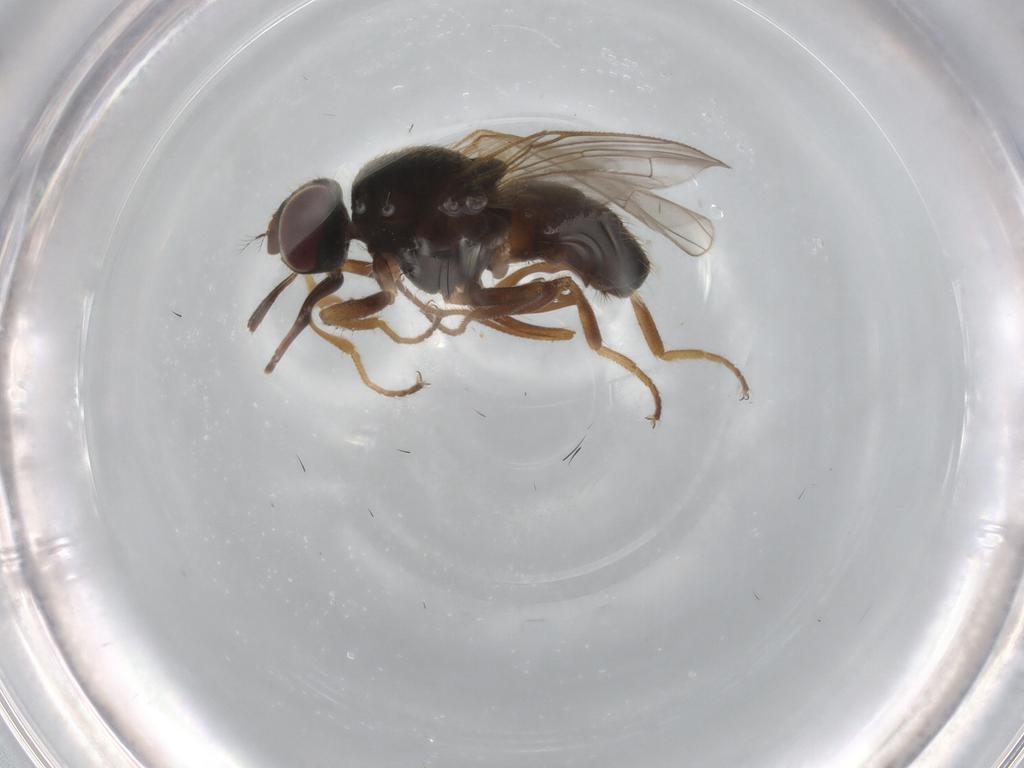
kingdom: Animalia
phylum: Arthropoda
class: Insecta
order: Diptera
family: Muscidae
